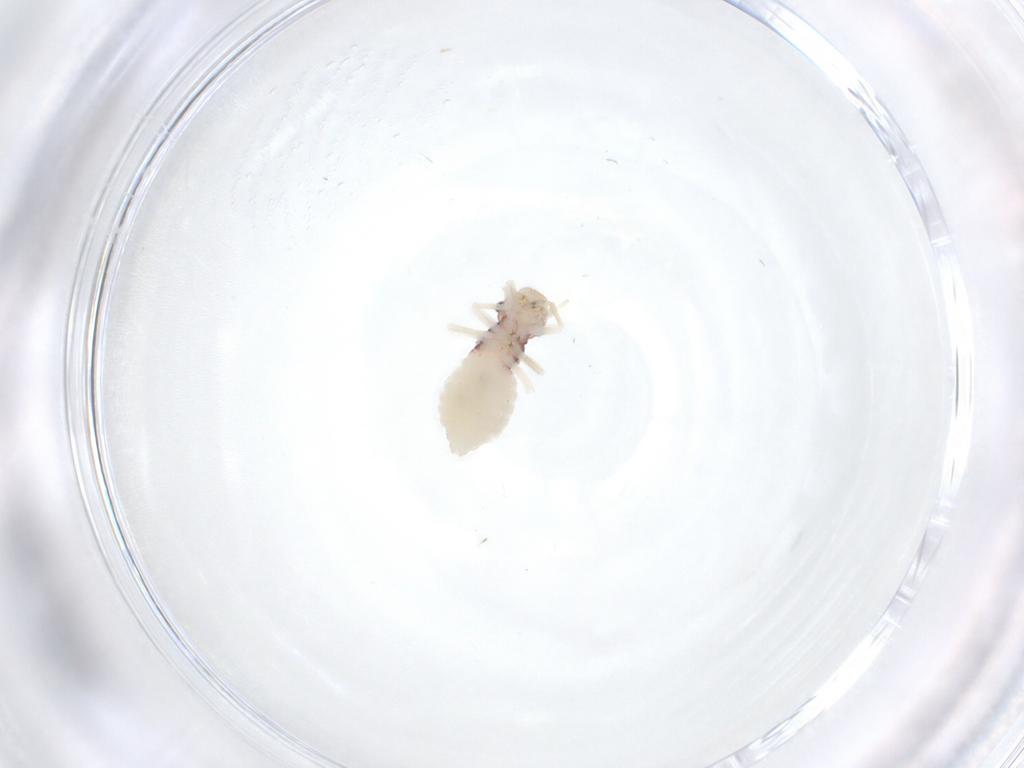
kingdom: Animalia
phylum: Arthropoda
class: Insecta
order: Psocodea
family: Amphipsocidae
